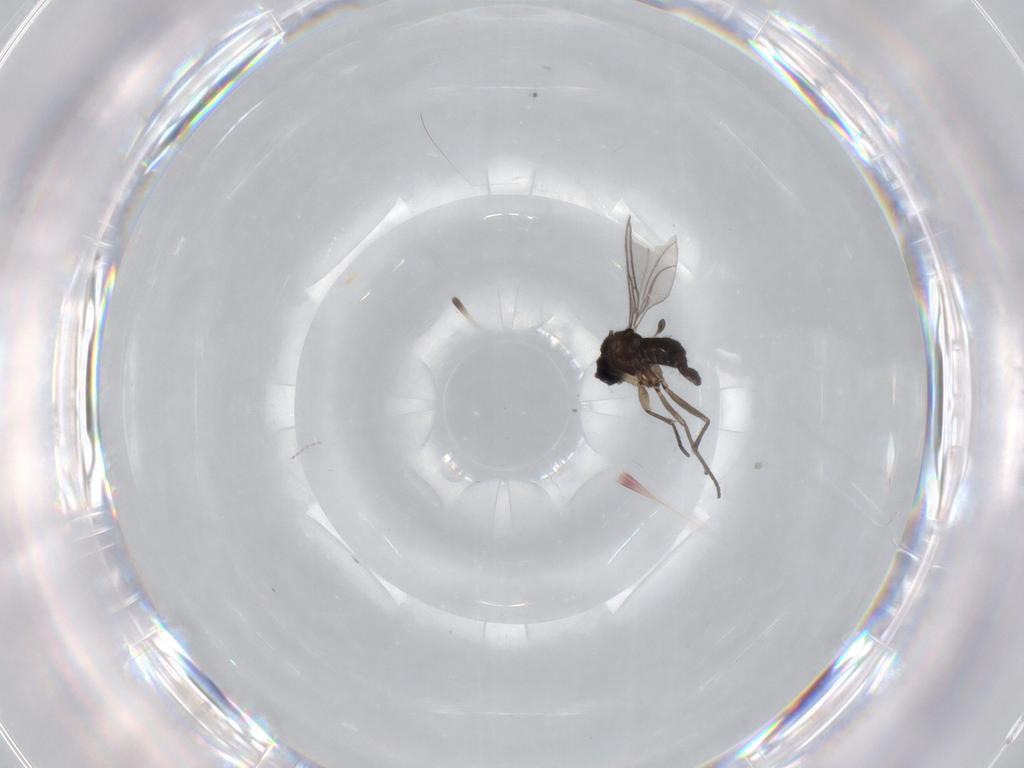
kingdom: Animalia
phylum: Arthropoda
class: Insecta
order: Diptera
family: Sciaridae
